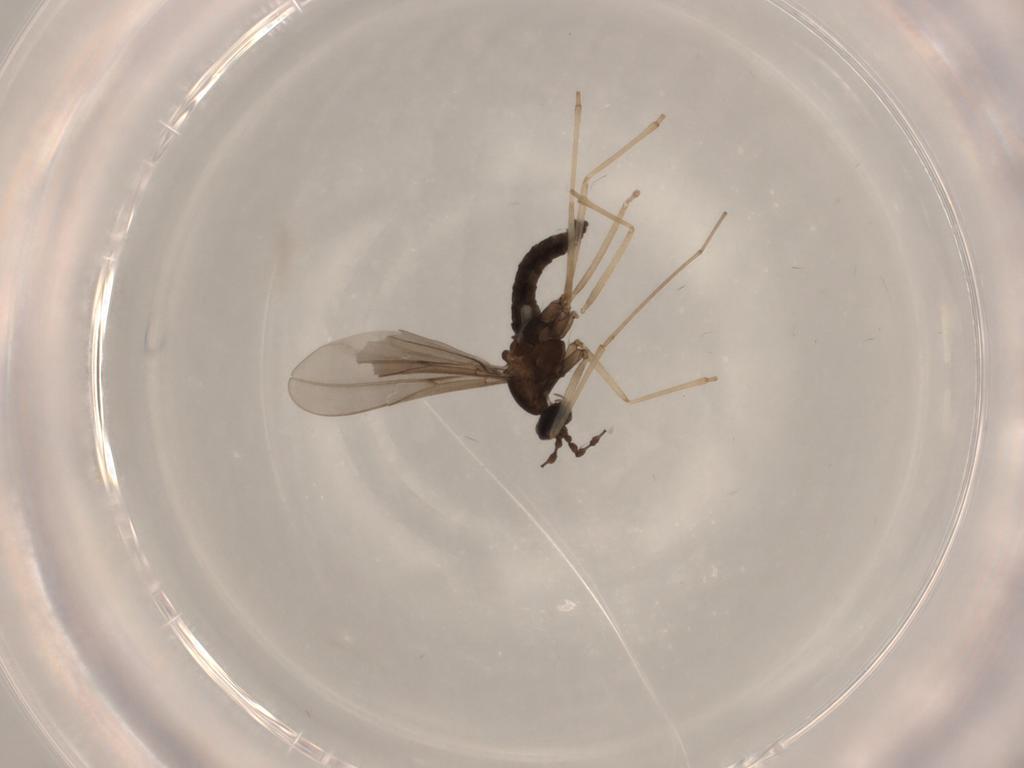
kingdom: Animalia
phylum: Arthropoda
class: Insecta
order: Diptera
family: Cecidomyiidae
